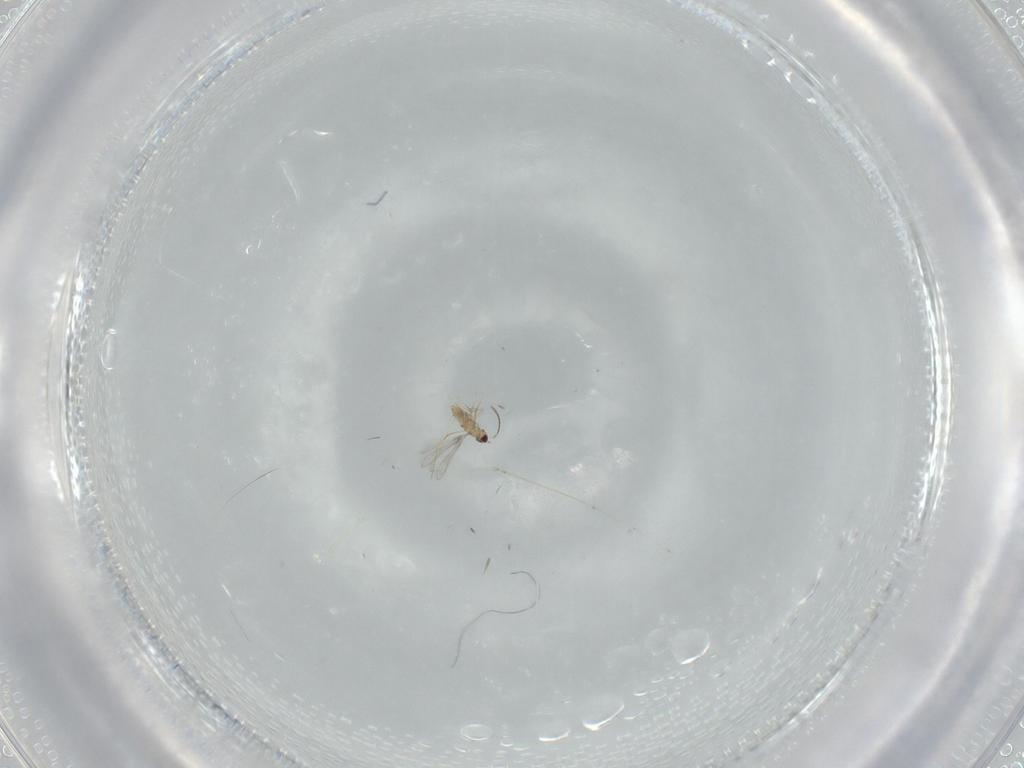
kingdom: Animalia
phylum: Arthropoda
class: Insecta
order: Hymenoptera
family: Mymaridae
